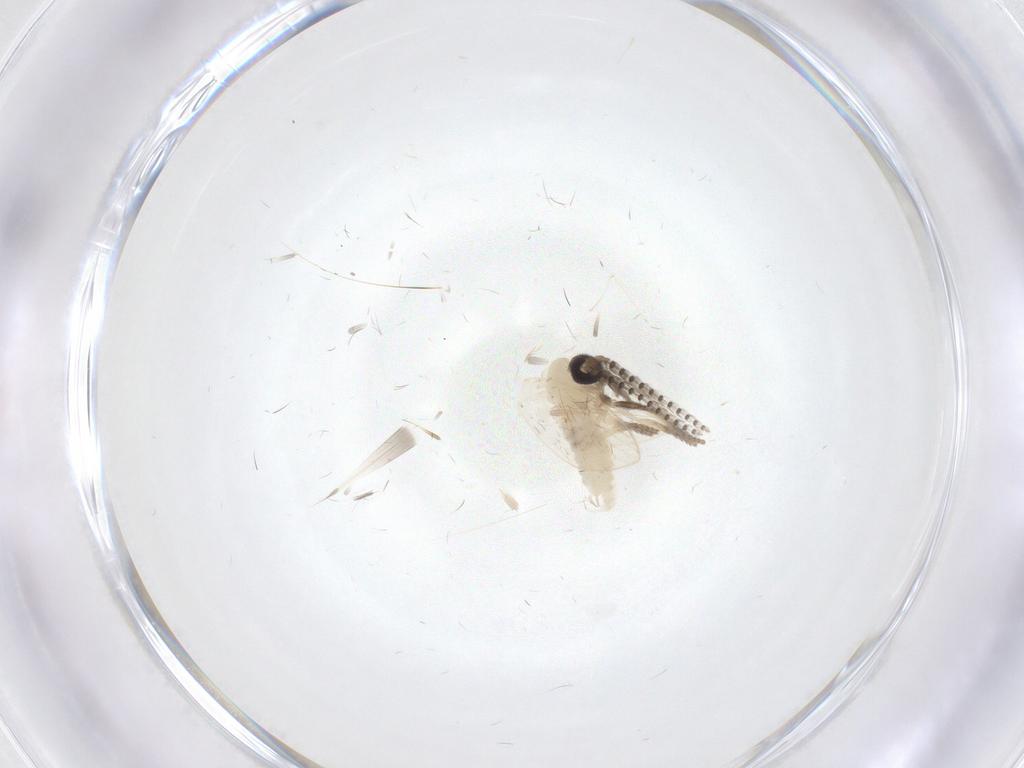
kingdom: Animalia
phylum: Arthropoda
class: Insecta
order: Diptera
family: Psychodidae
